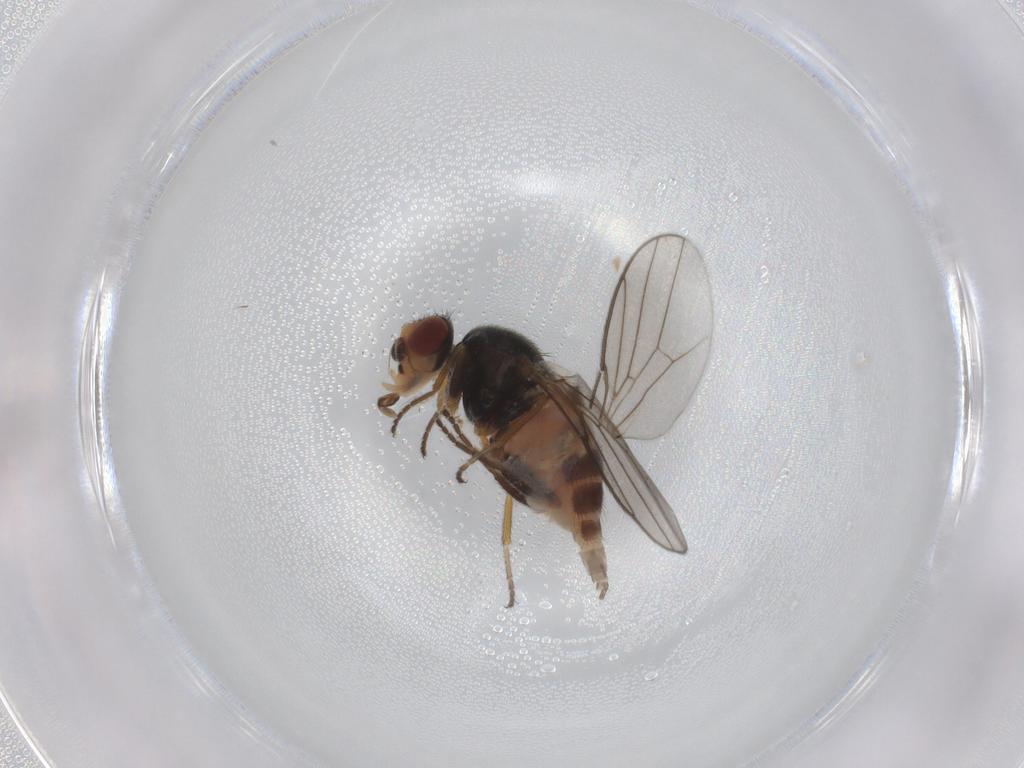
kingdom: Animalia
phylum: Arthropoda
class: Insecta
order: Diptera
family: Chloropidae
